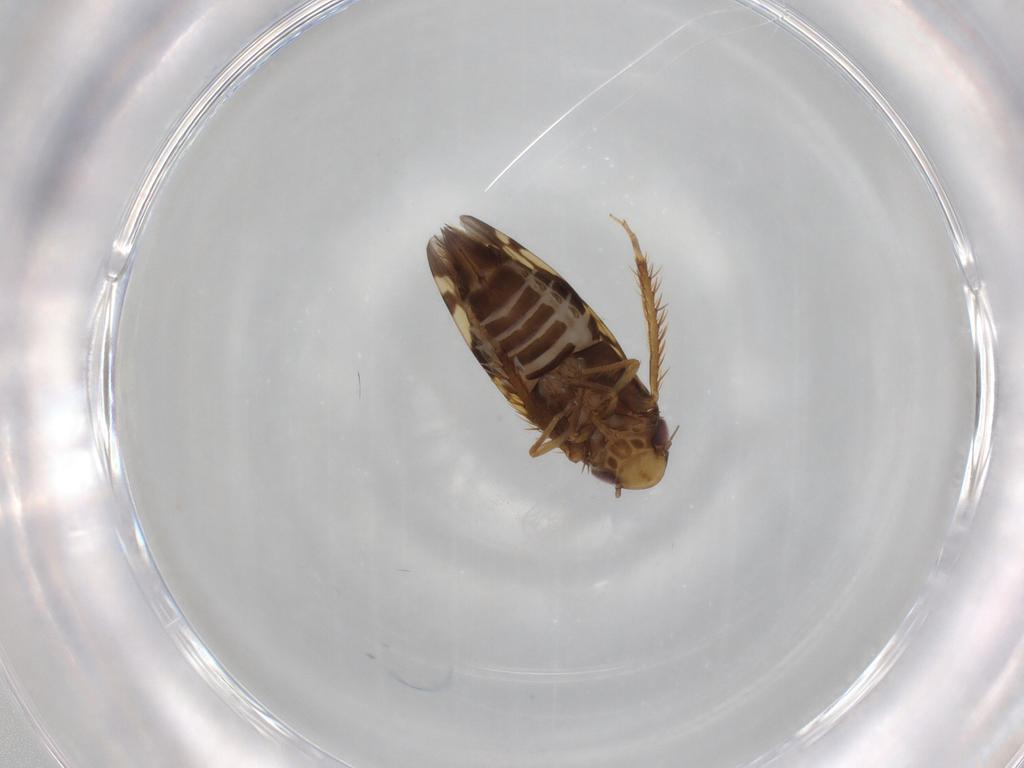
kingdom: Animalia
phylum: Arthropoda
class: Insecta
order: Hemiptera
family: Cicadellidae
